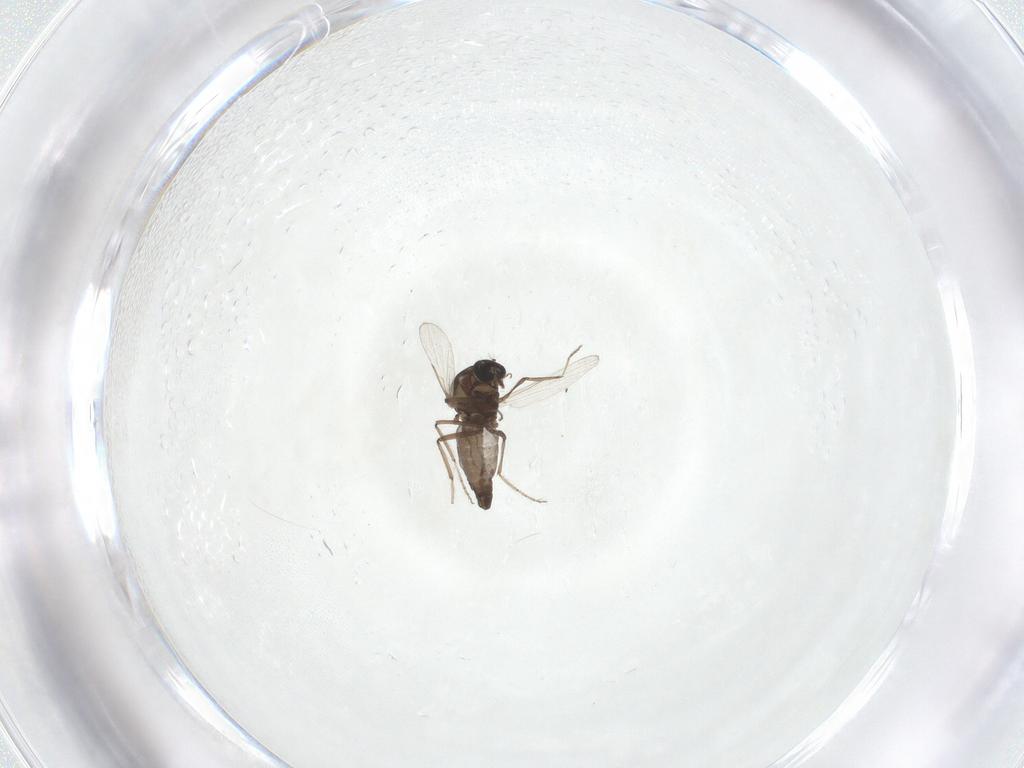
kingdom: Animalia
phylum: Arthropoda
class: Insecta
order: Diptera
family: Ceratopogonidae
